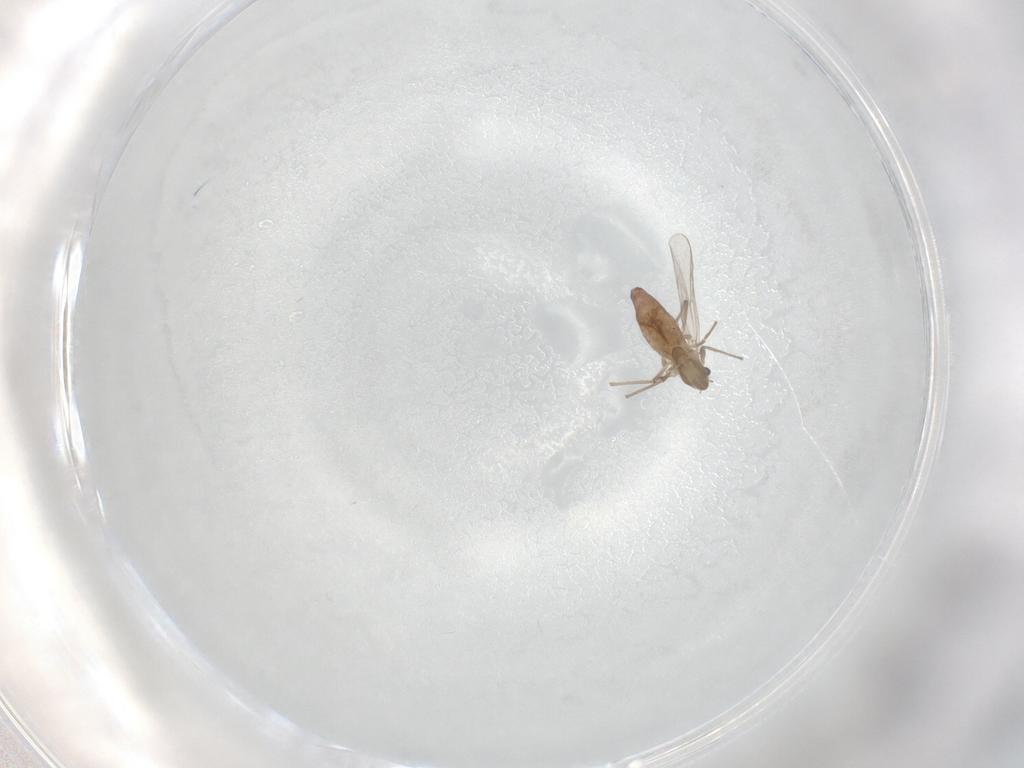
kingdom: Animalia
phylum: Arthropoda
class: Insecta
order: Diptera
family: Chironomidae
